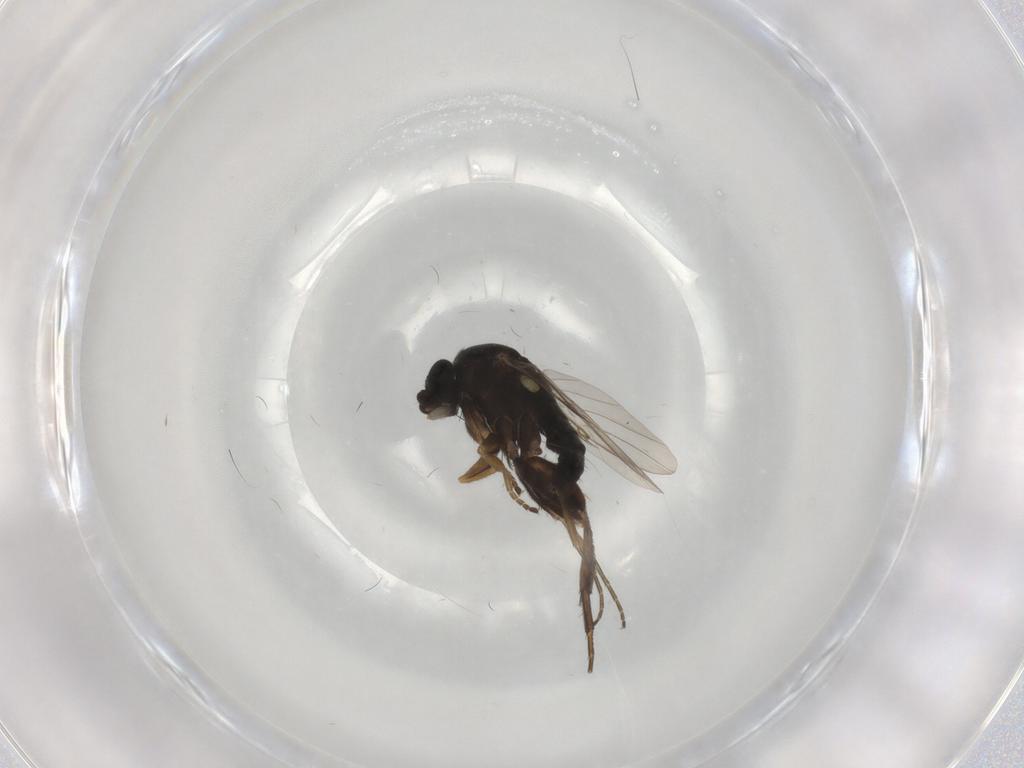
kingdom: Animalia
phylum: Arthropoda
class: Insecta
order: Diptera
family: Phoridae
